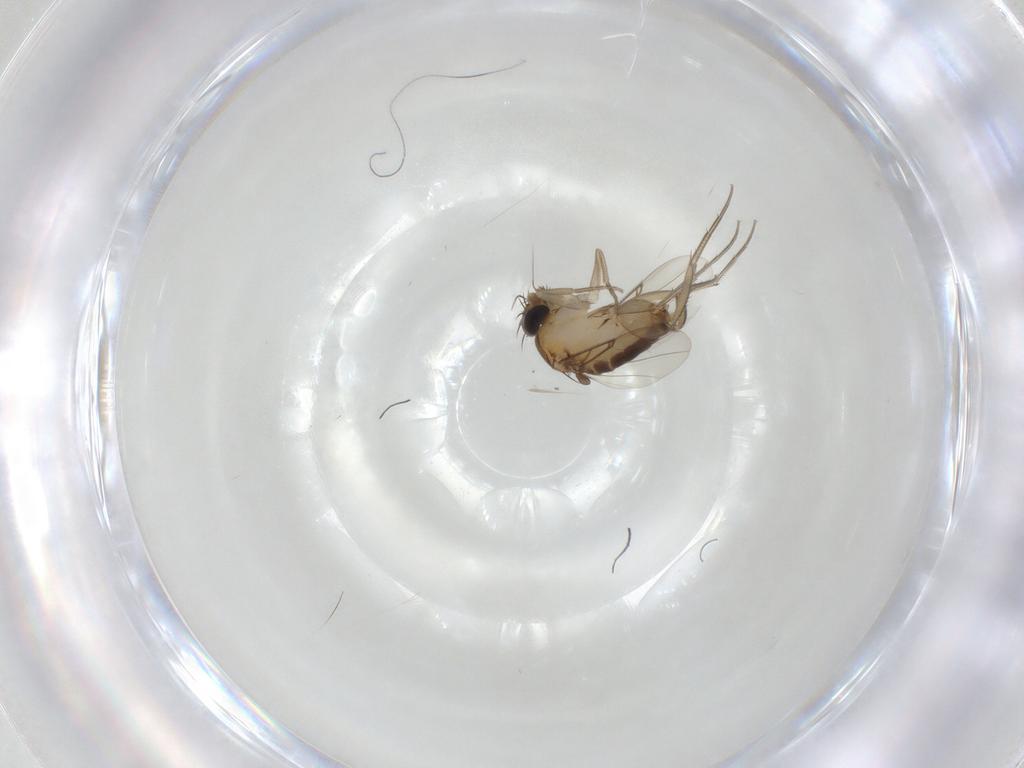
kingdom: Animalia
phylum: Arthropoda
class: Insecta
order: Diptera
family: Phoridae
